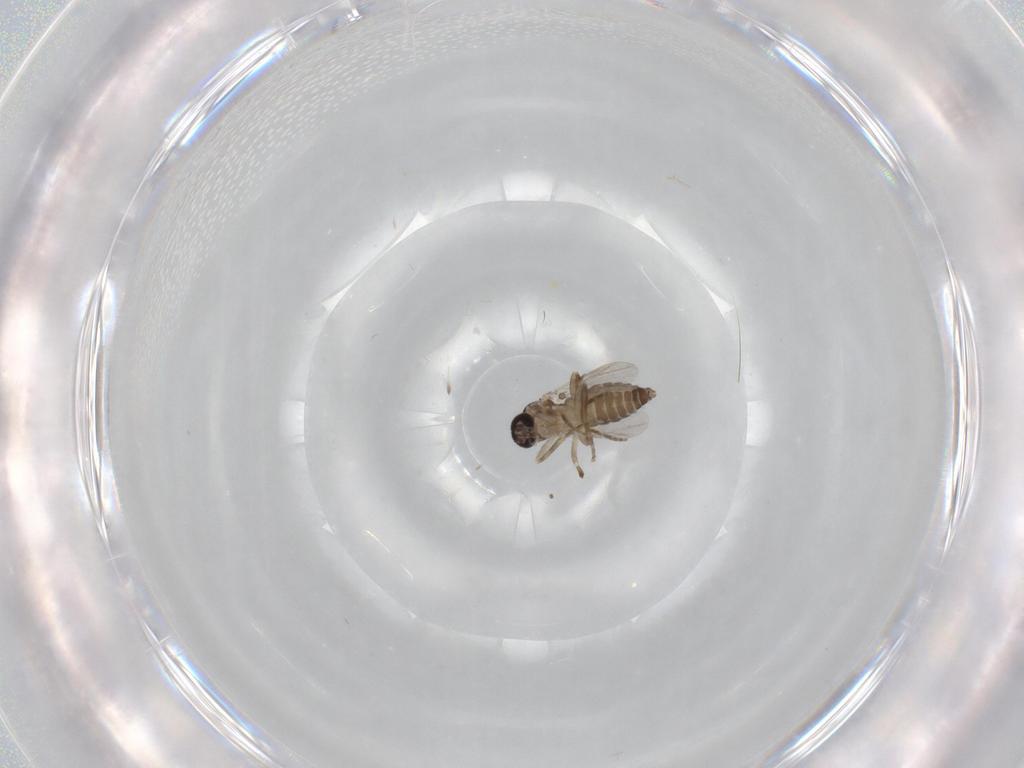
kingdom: Animalia
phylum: Arthropoda
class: Insecta
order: Diptera
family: Ceratopogonidae
